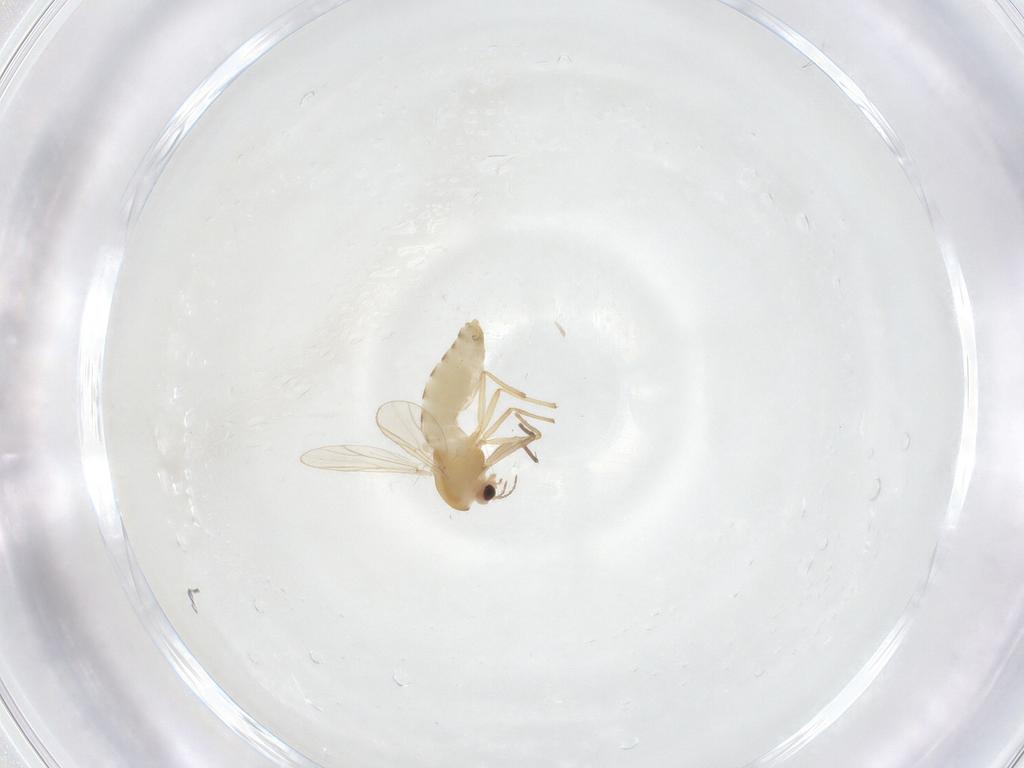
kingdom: Animalia
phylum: Arthropoda
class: Insecta
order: Diptera
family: Chironomidae
